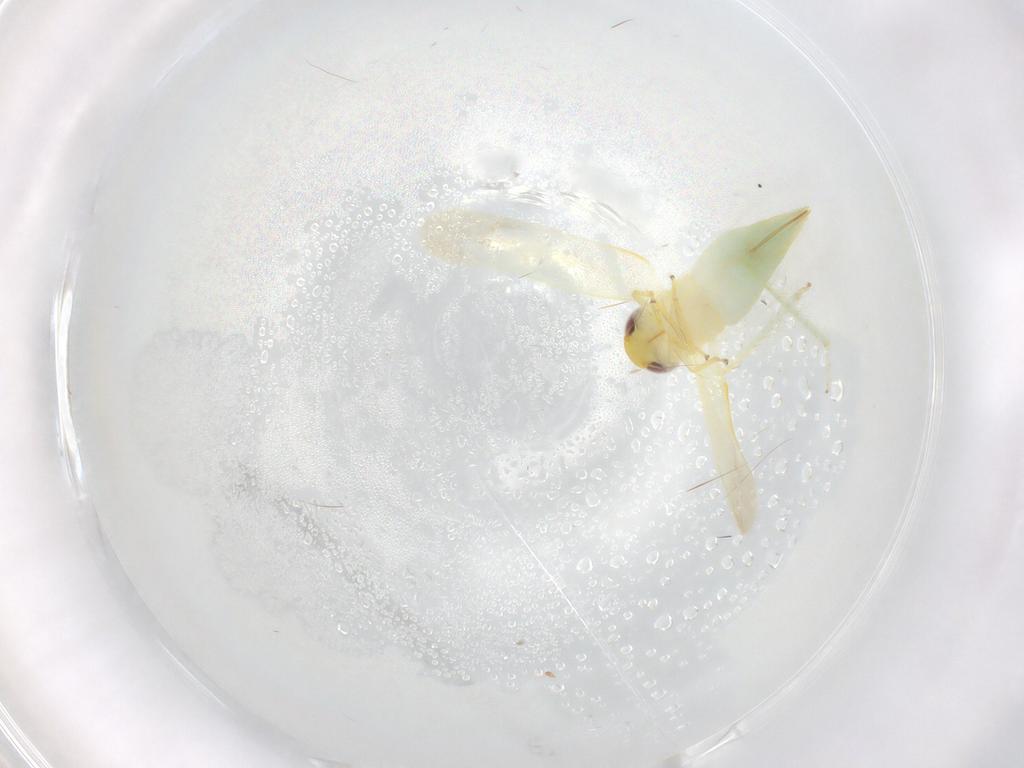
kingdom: Animalia
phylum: Arthropoda
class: Insecta
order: Hemiptera
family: Cicadellidae
